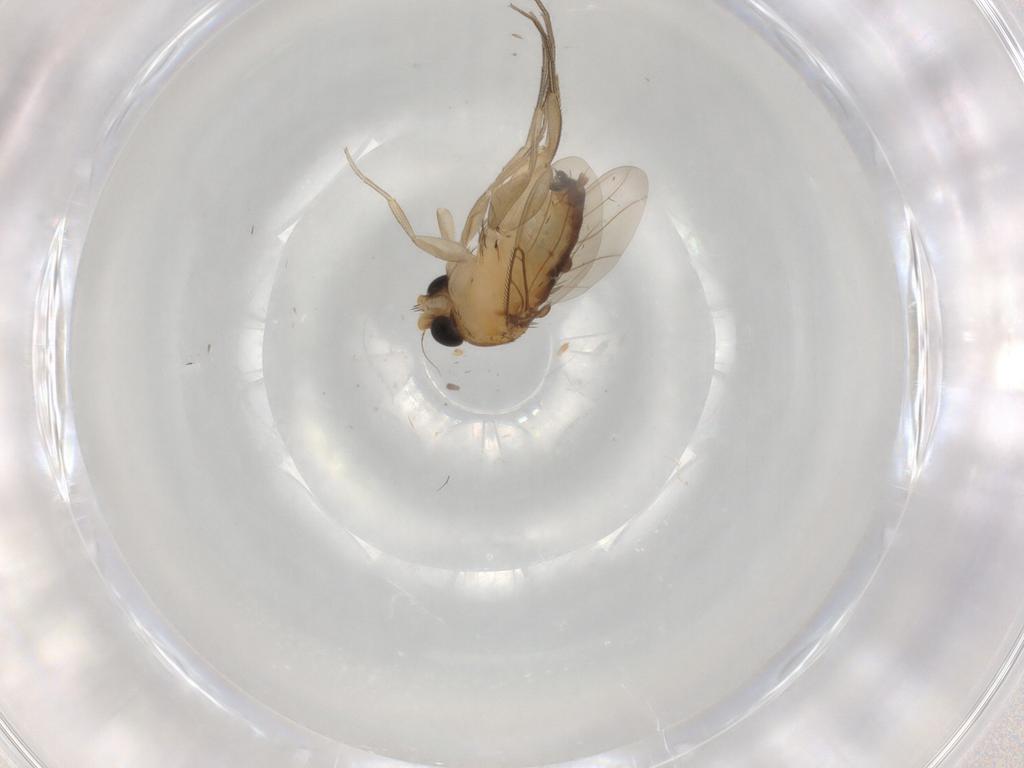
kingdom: Animalia
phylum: Arthropoda
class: Insecta
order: Diptera
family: Phoridae
